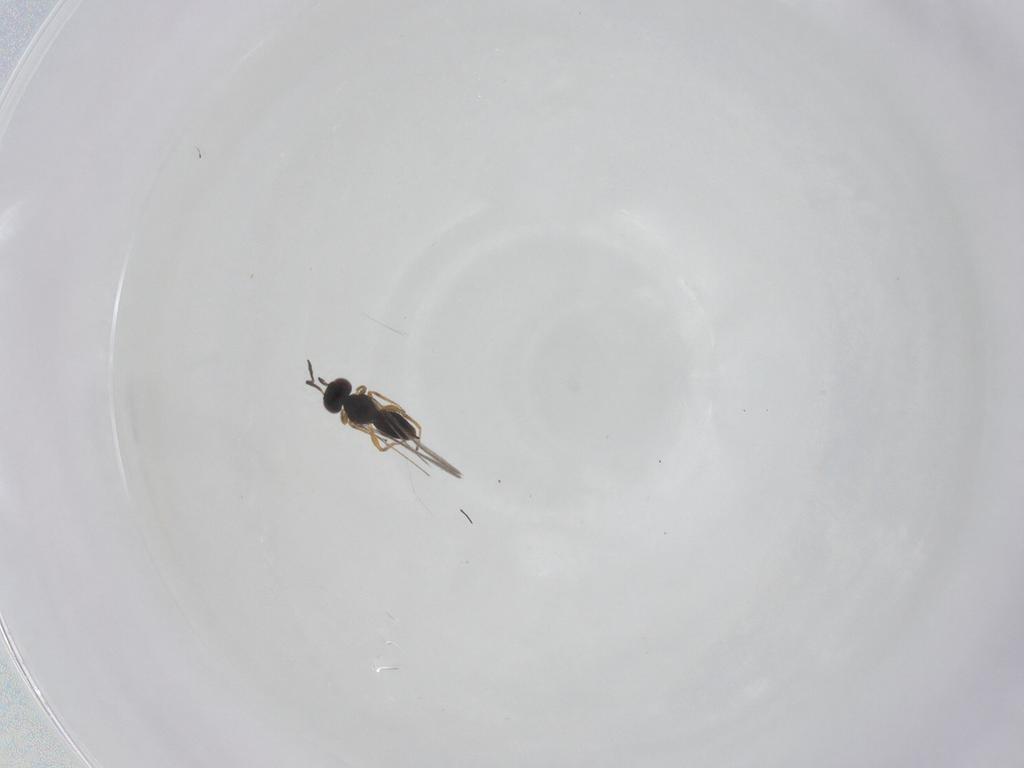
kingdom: Animalia
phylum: Arthropoda
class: Insecta
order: Hymenoptera
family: Mymaridae
